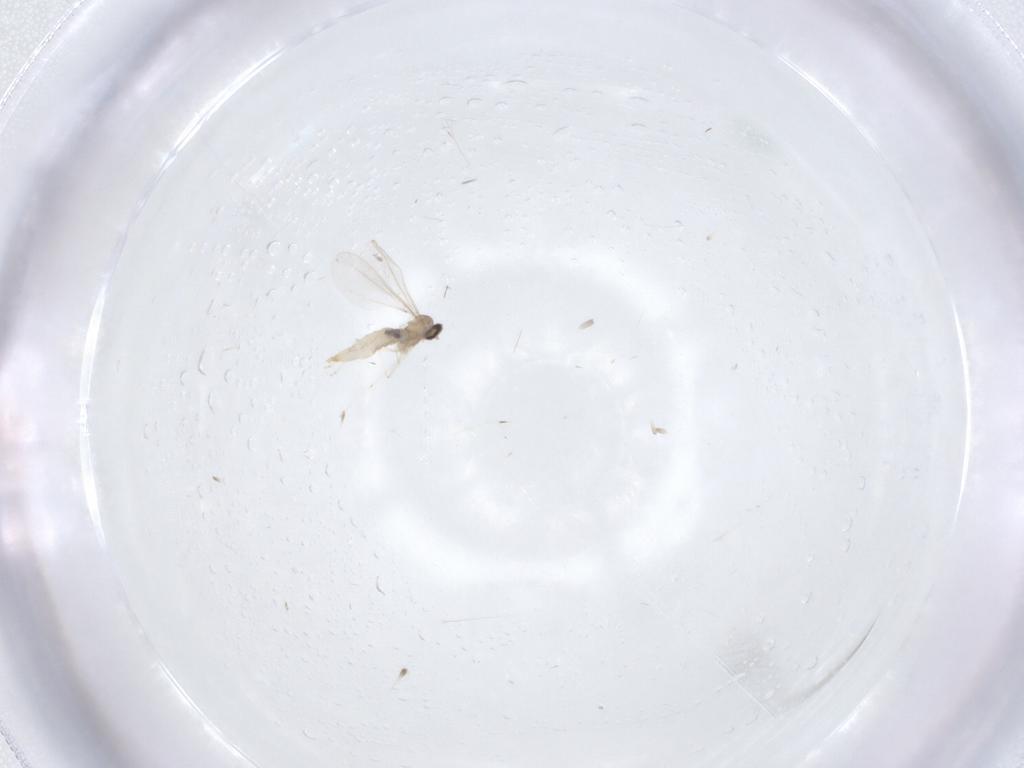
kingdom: Animalia
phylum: Arthropoda
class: Insecta
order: Diptera
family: Cecidomyiidae
